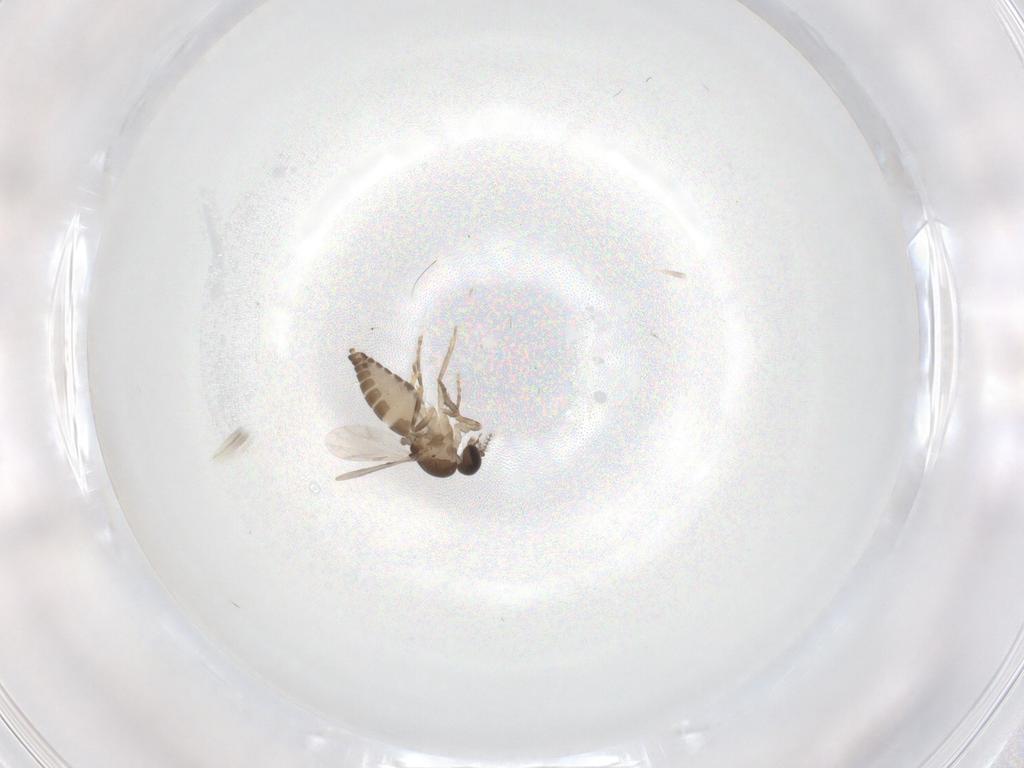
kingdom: Animalia
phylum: Arthropoda
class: Insecta
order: Diptera
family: Ceratopogonidae
